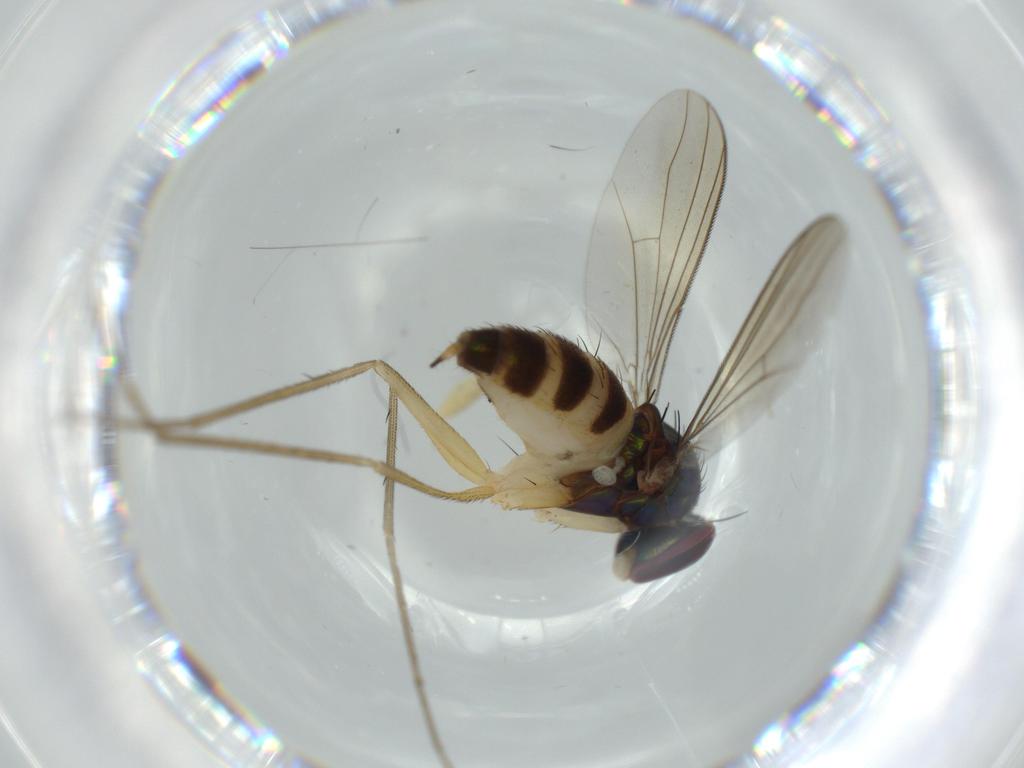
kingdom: Animalia
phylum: Arthropoda
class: Insecta
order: Diptera
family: Dolichopodidae
